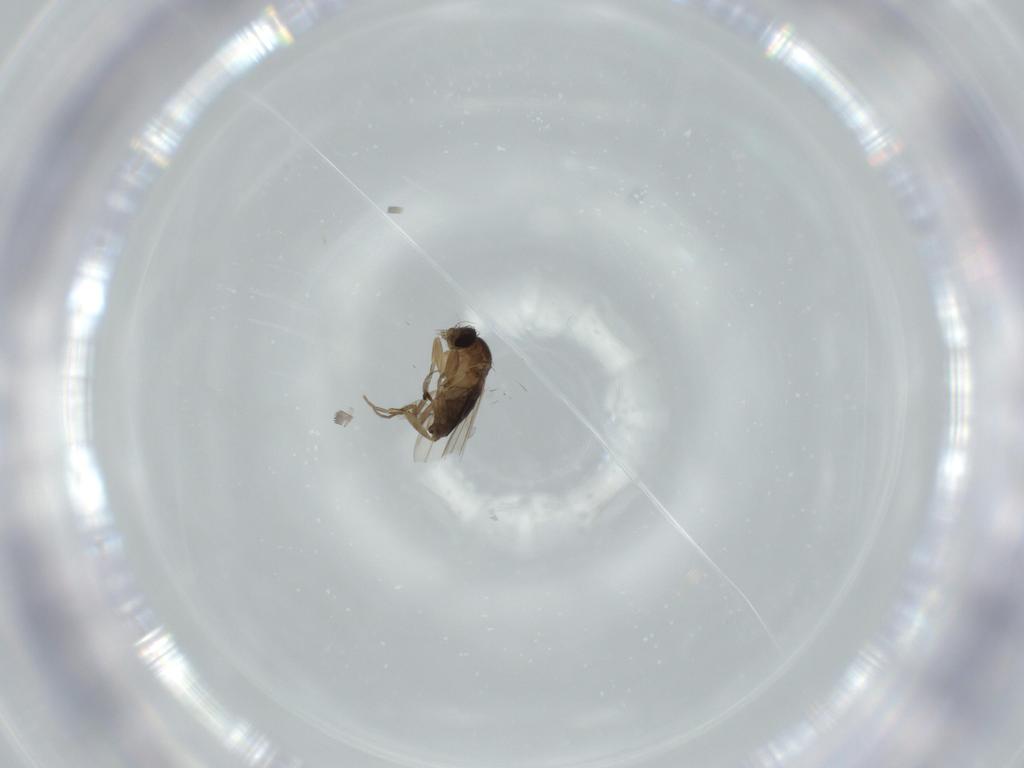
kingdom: Animalia
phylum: Arthropoda
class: Insecta
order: Diptera
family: Phoridae
